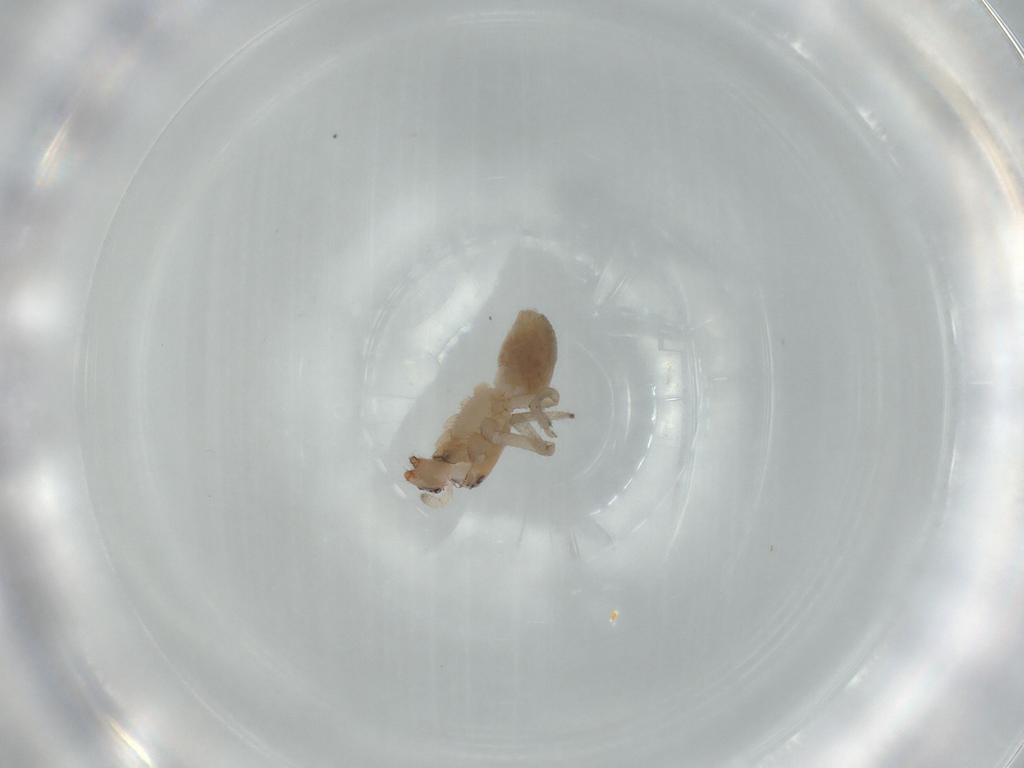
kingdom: Animalia
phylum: Arthropoda
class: Arachnida
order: Araneae
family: Trachelidae
